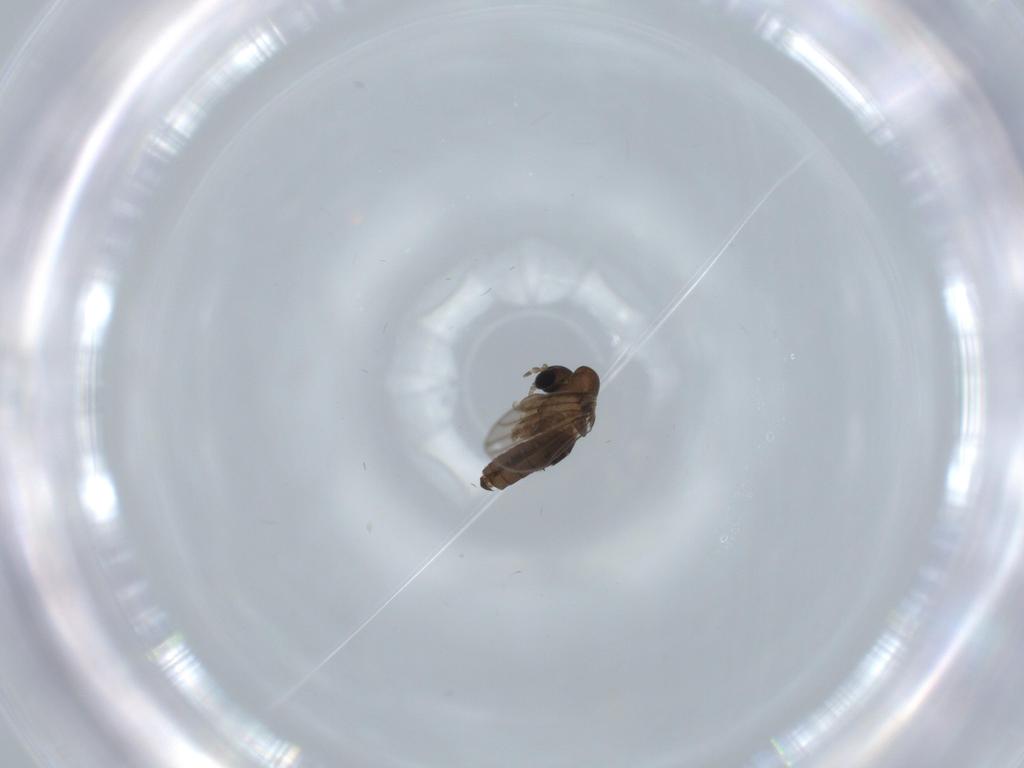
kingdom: Animalia
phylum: Arthropoda
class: Insecta
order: Diptera
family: Psychodidae
